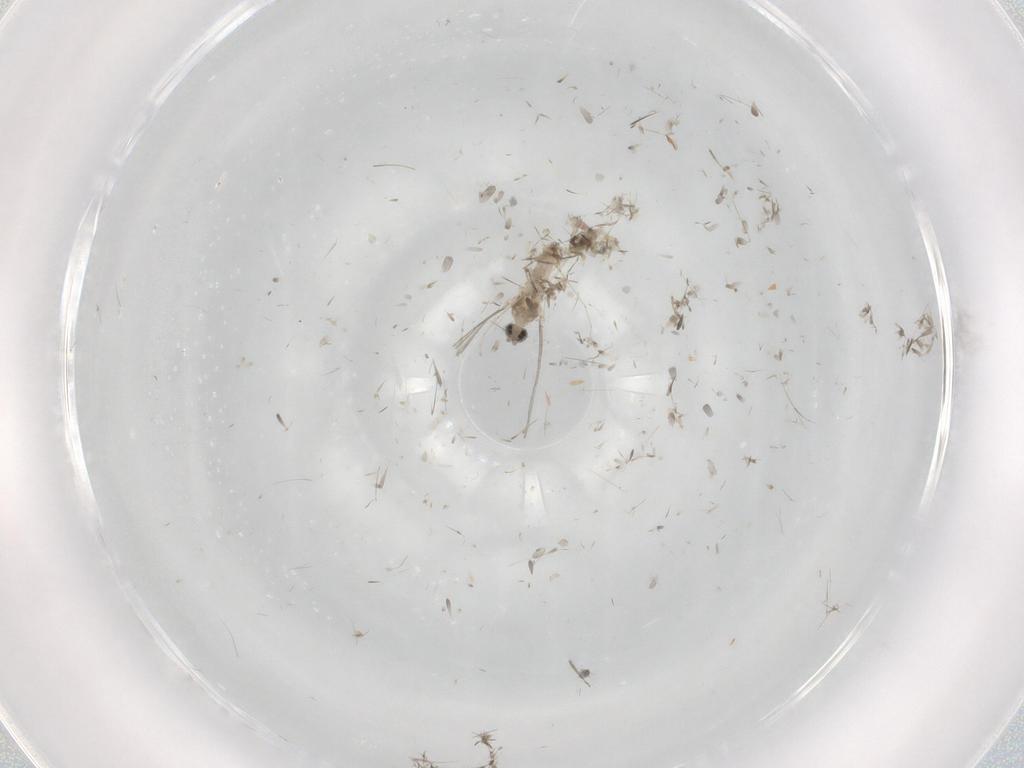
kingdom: Animalia
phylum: Arthropoda
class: Insecta
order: Diptera
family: Cecidomyiidae
